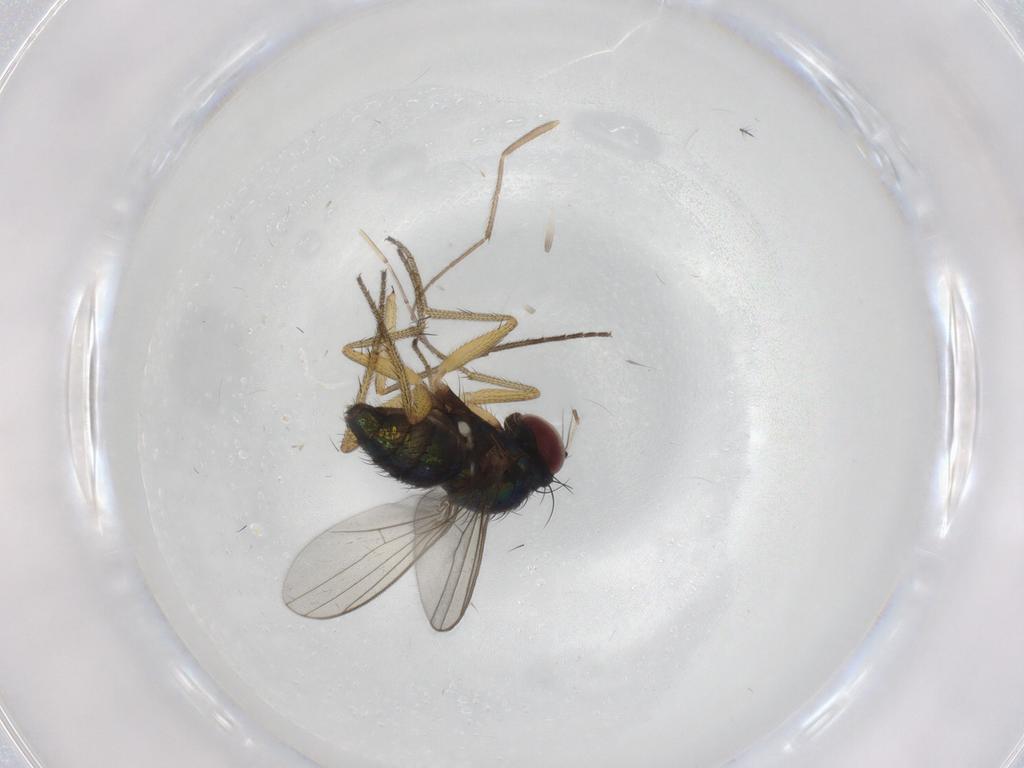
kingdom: Animalia
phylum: Arthropoda
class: Insecta
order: Diptera
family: Chironomidae
